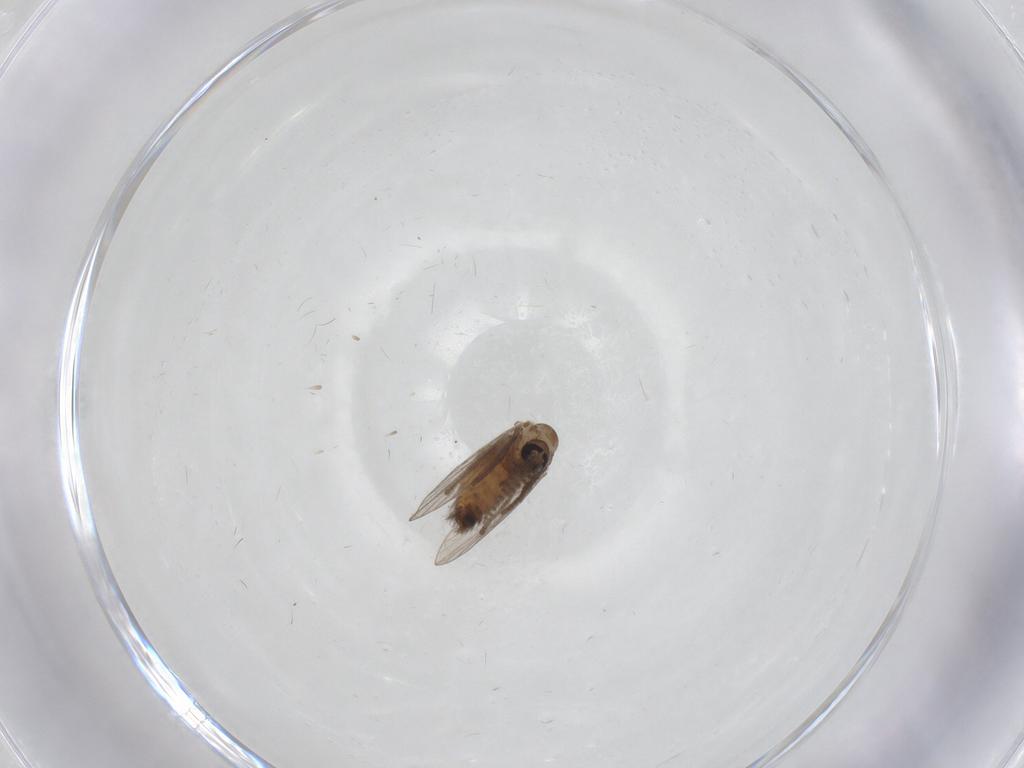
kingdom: Animalia
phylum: Arthropoda
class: Insecta
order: Diptera
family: Psychodidae
